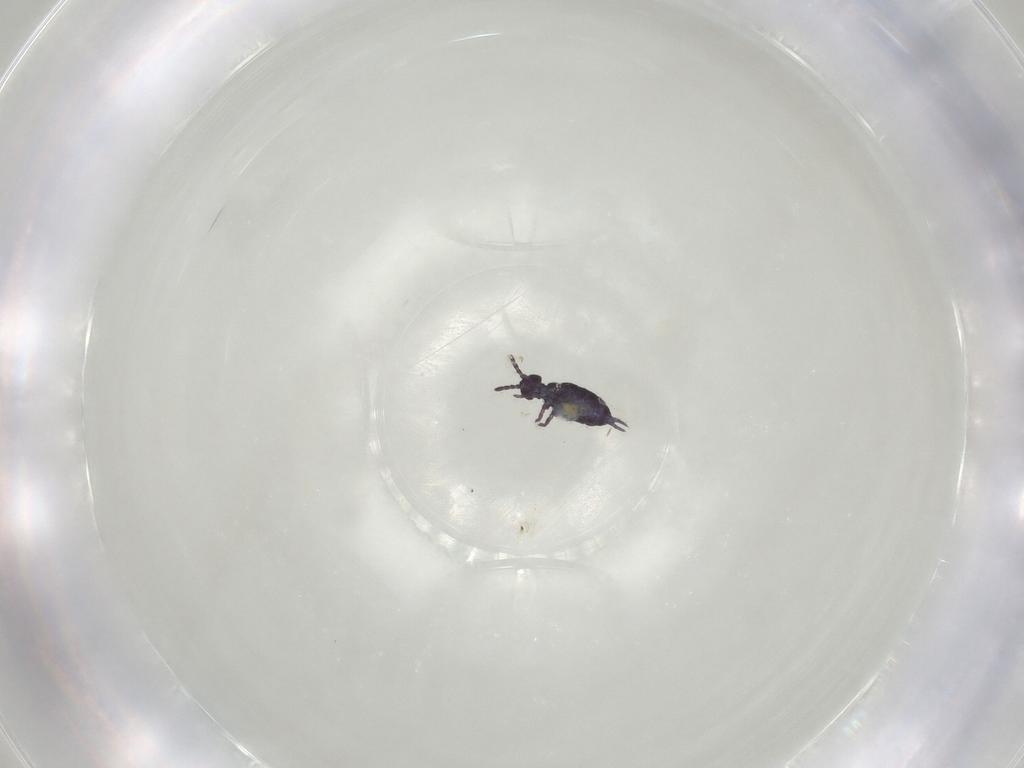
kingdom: Animalia
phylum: Arthropoda
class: Collembola
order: Entomobryomorpha
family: Isotomidae
